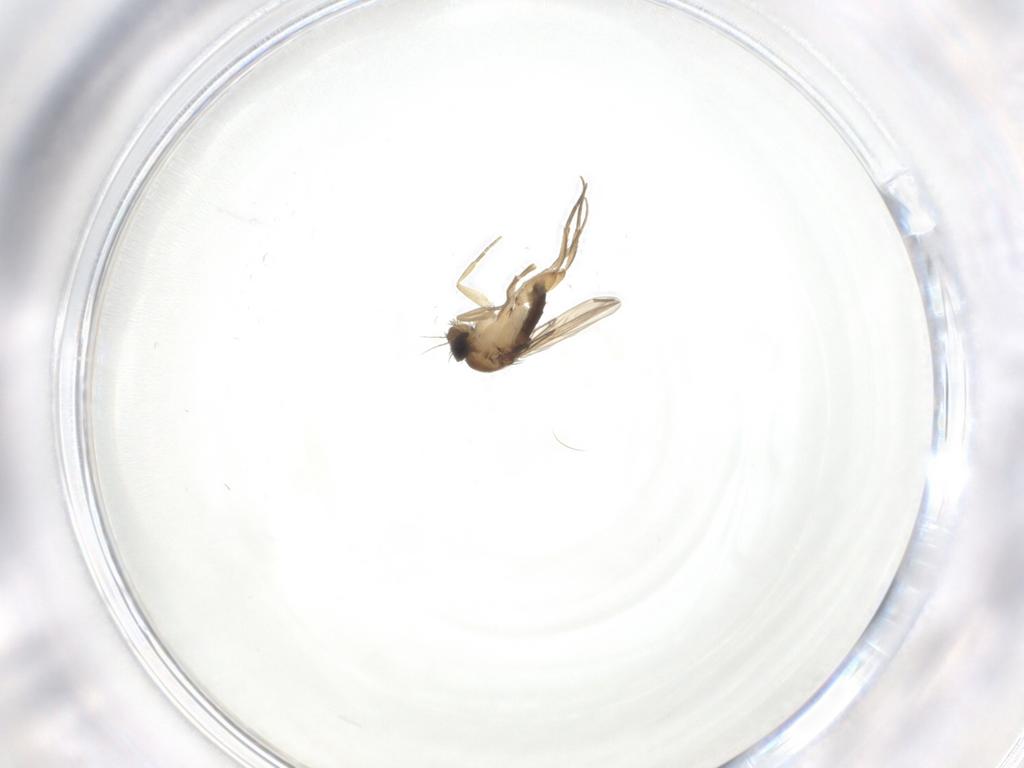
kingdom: Animalia
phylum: Arthropoda
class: Insecta
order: Diptera
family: Phoridae
